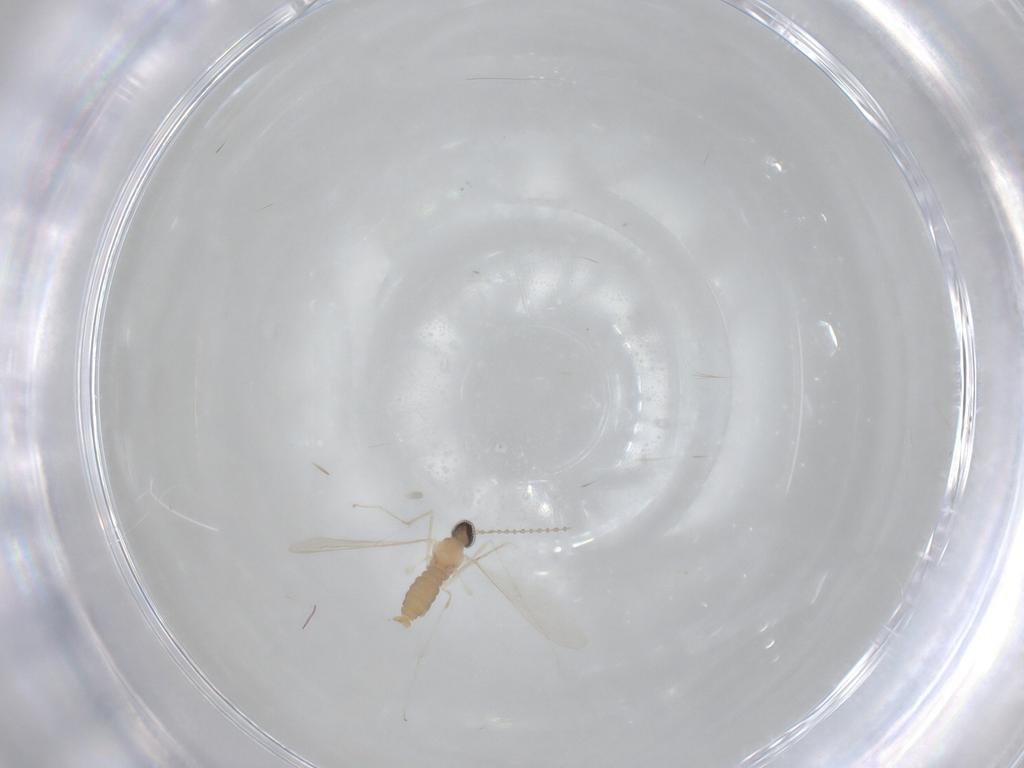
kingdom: Animalia
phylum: Arthropoda
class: Insecta
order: Diptera
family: Cecidomyiidae
